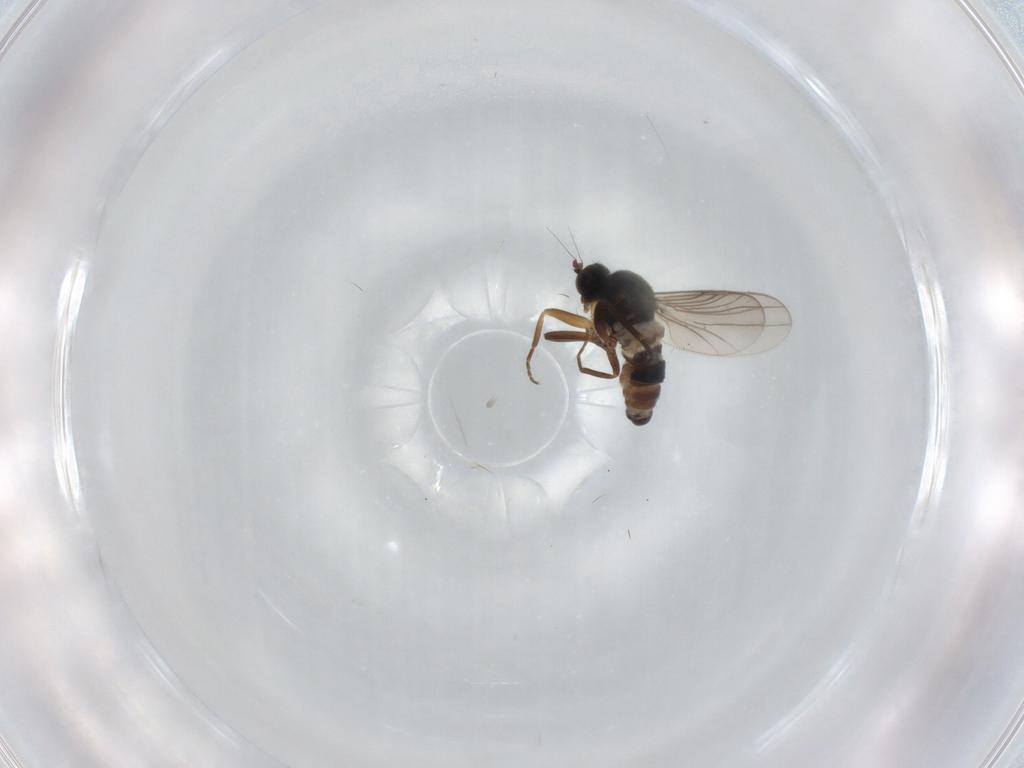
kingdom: Animalia
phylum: Arthropoda
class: Insecta
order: Diptera
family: Hybotidae
